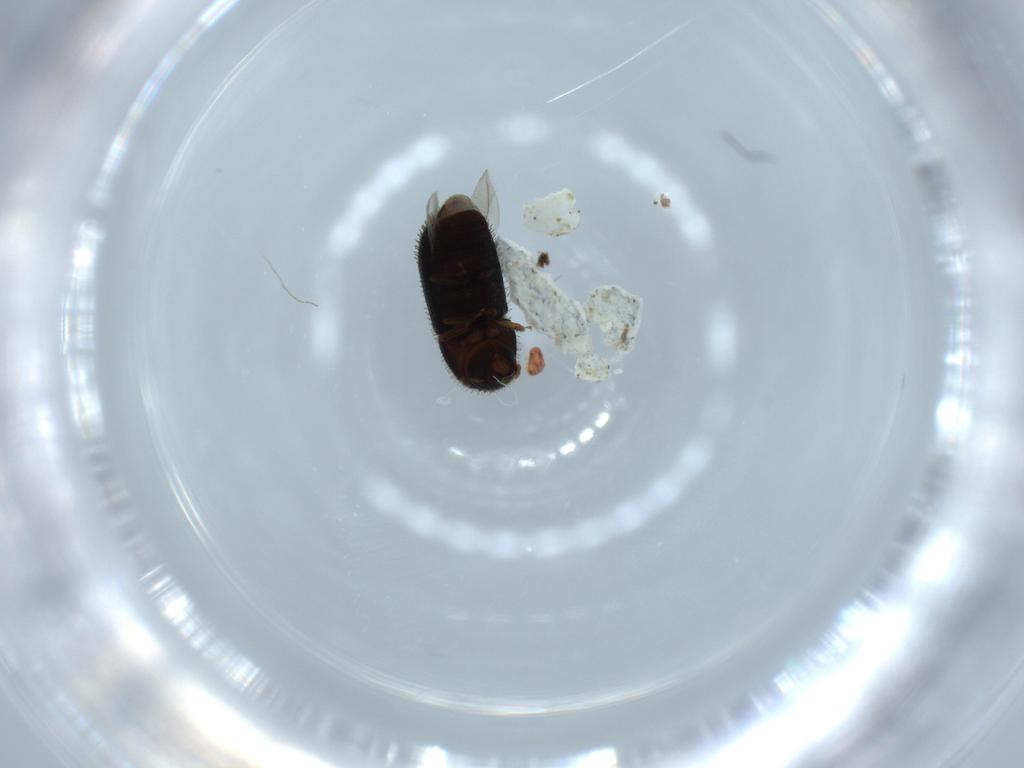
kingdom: Animalia
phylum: Arthropoda
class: Insecta
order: Coleoptera
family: Curculionidae
